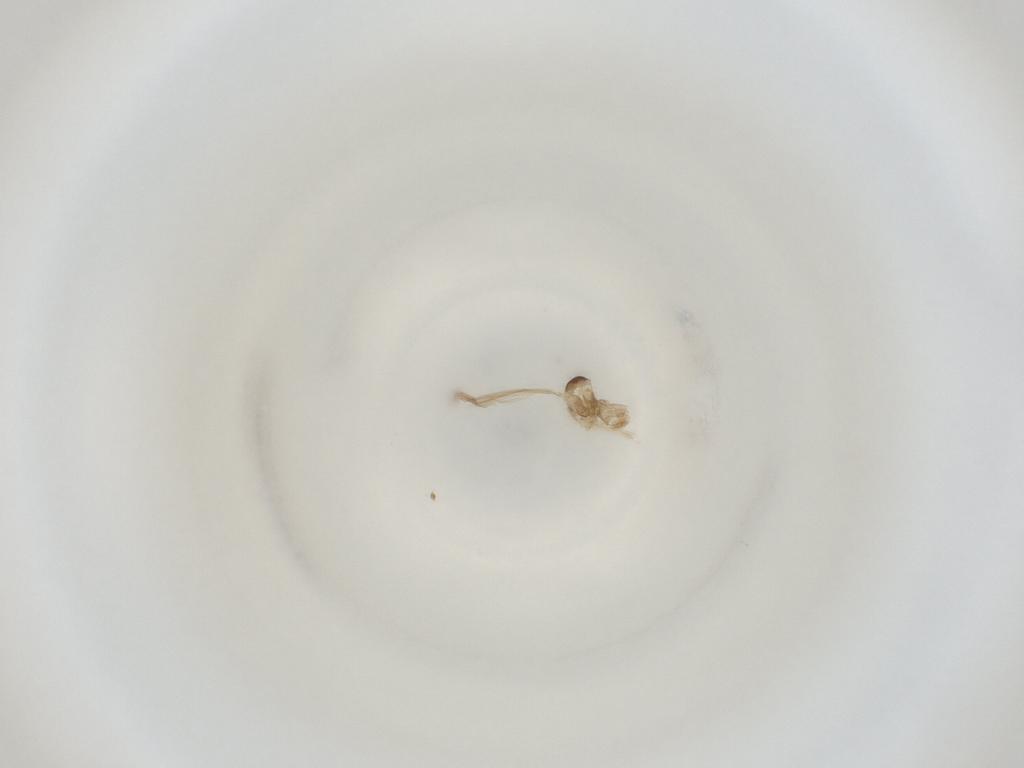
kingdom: Animalia
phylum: Arthropoda
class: Insecta
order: Diptera
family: Cecidomyiidae
